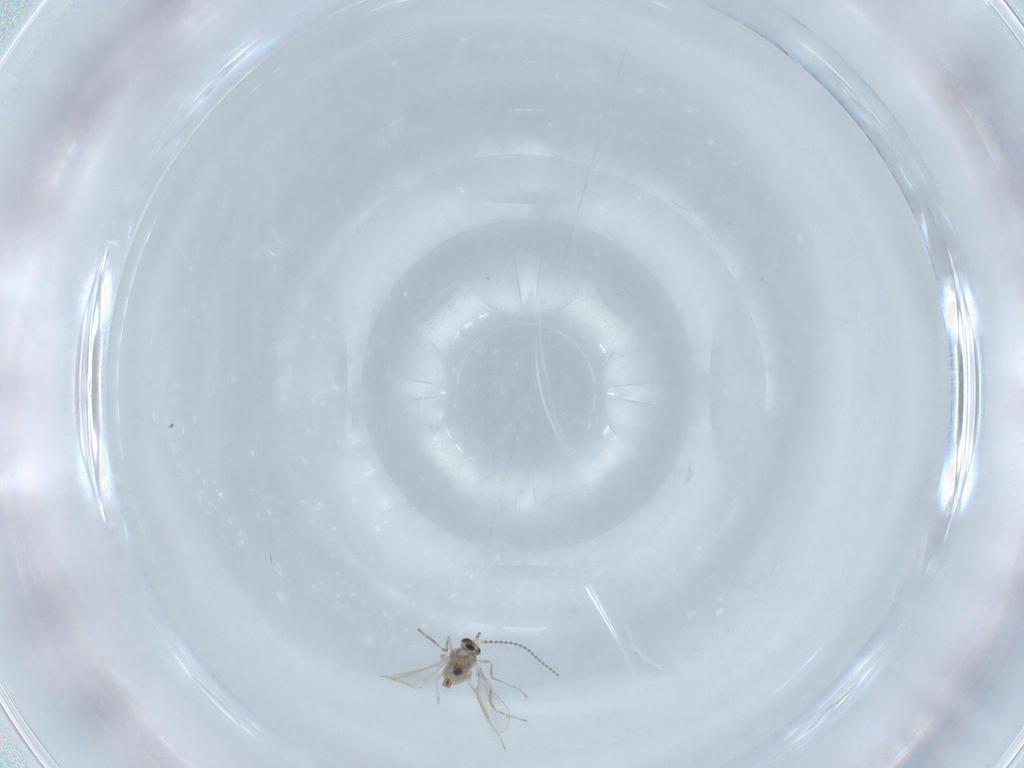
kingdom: Animalia
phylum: Arthropoda
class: Insecta
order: Diptera
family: Cecidomyiidae
